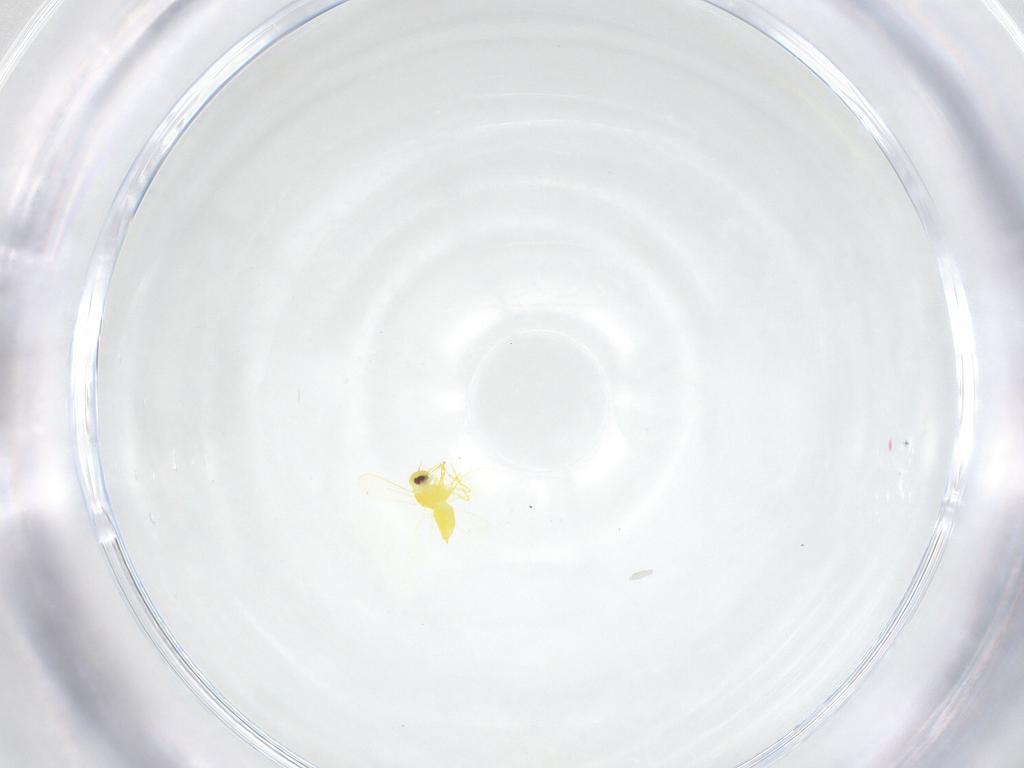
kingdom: Animalia
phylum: Arthropoda
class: Insecta
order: Hemiptera
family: Aleyrodidae
